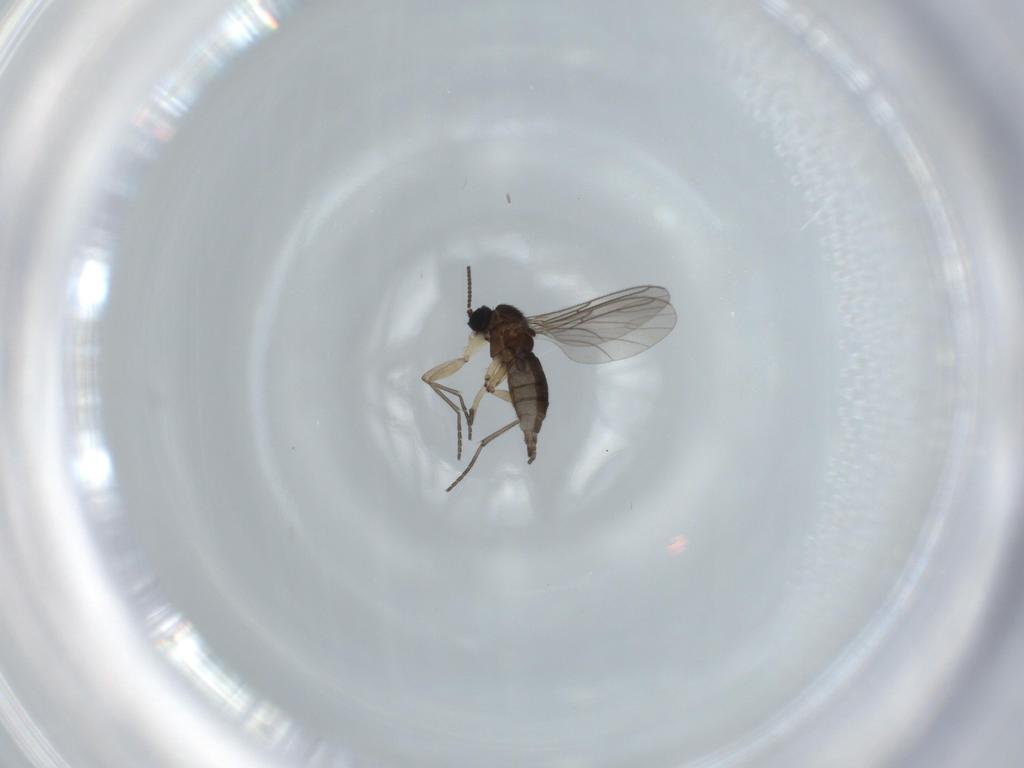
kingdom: Animalia
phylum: Arthropoda
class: Insecta
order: Diptera
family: Sciaridae
